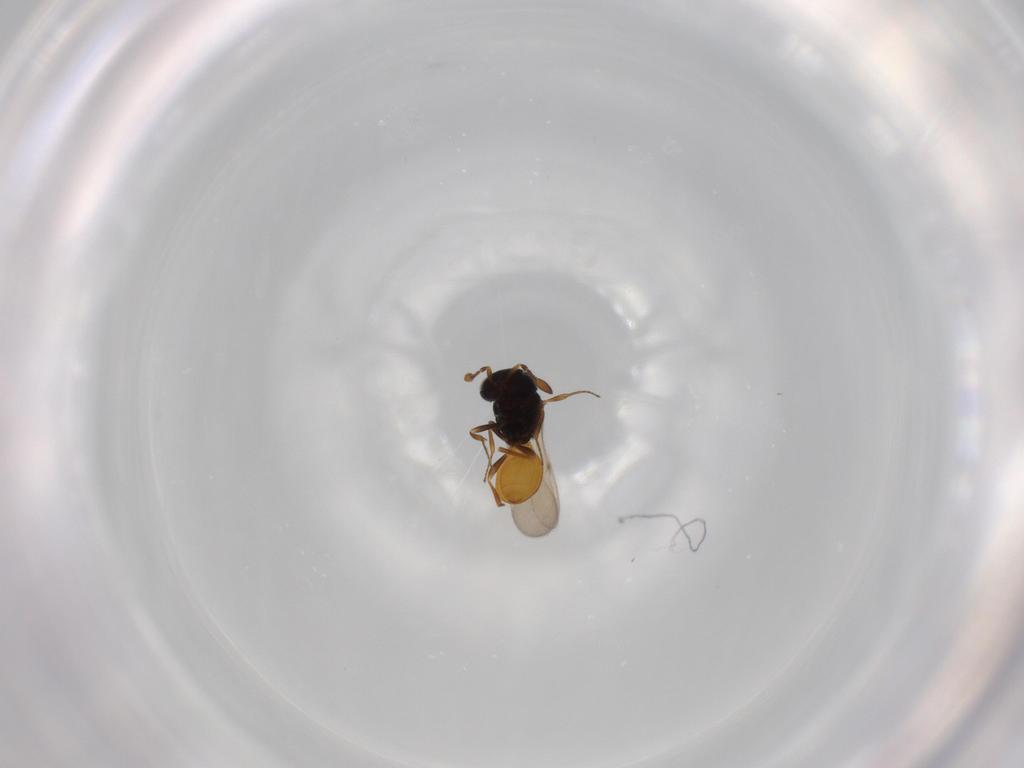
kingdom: Animalia
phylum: Arthropoda
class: Insecta
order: Hymenoptera
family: Scelionidae
